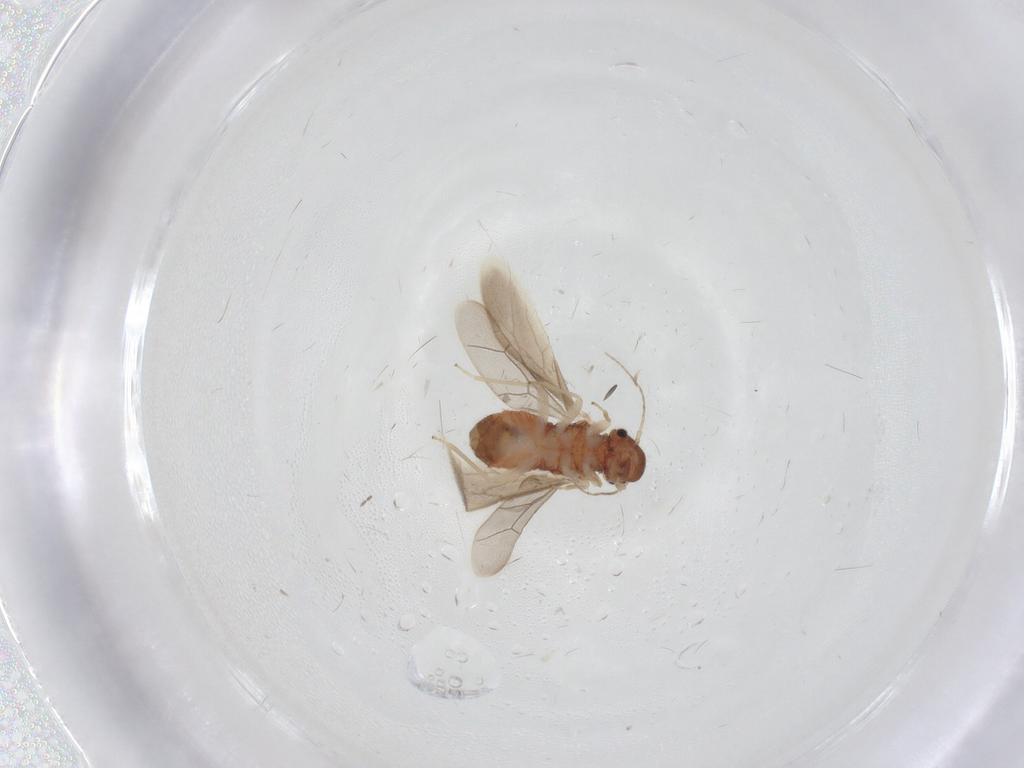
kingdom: Animalia
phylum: Arthropoda
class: Insecta
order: Psocodea
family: Archipsocidae
